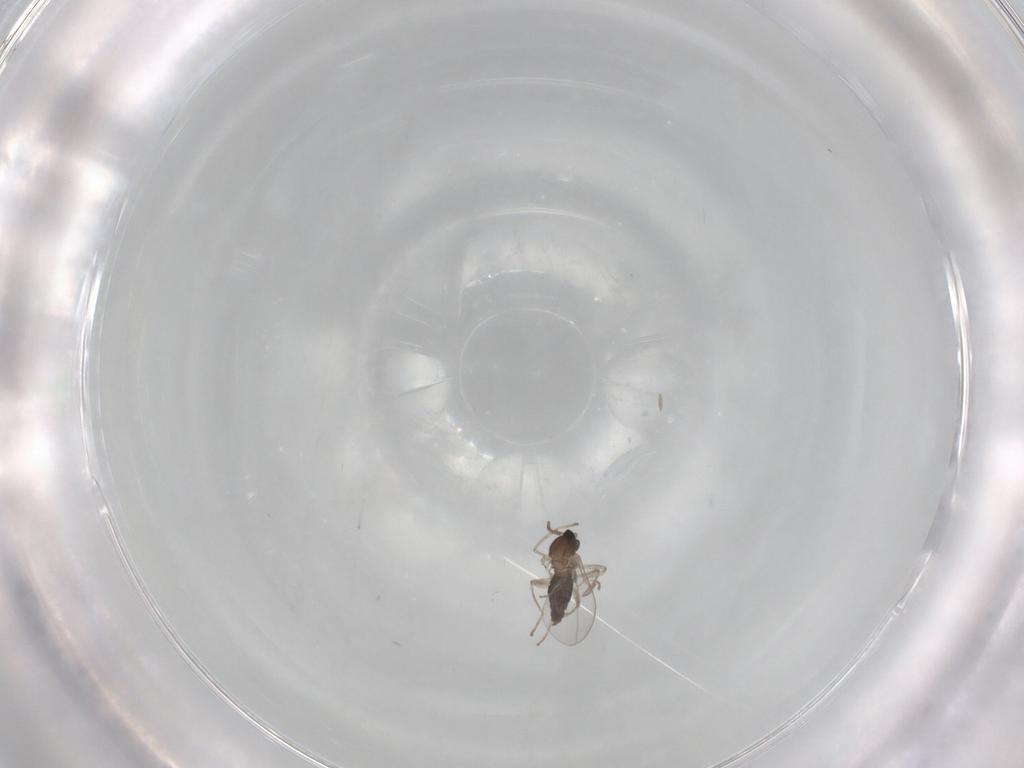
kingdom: Animalia
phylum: Arthropoda
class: Insecta
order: Diptera
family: Cecidomyiidae
